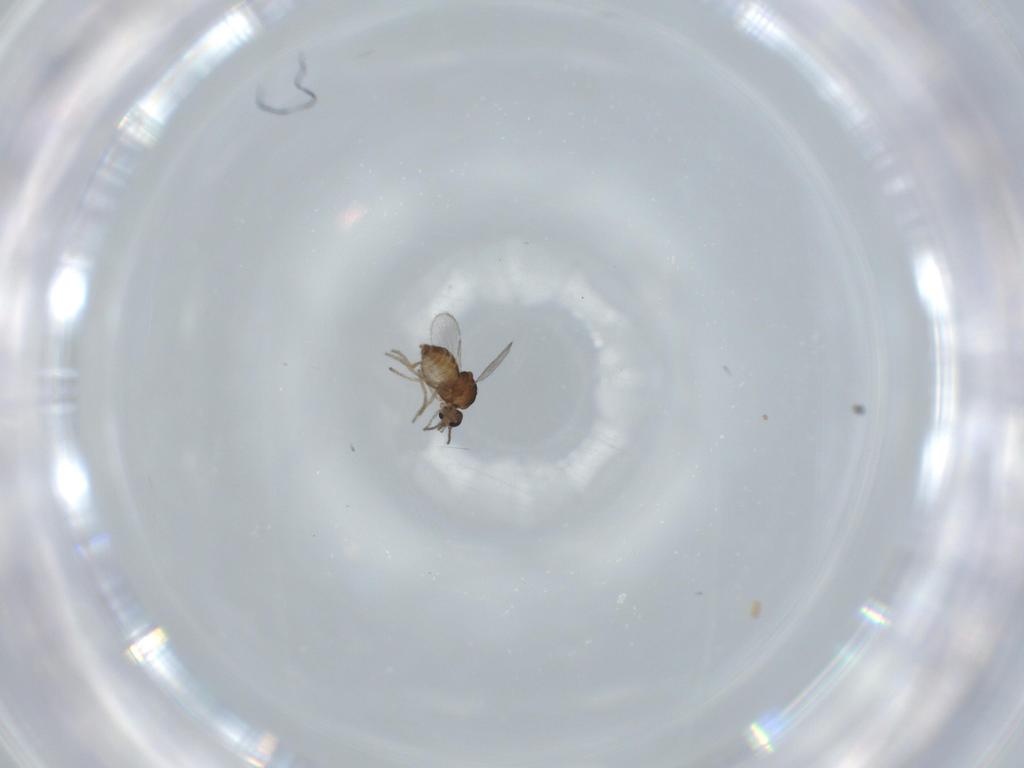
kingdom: Animalia
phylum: Arthropoda
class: Insecta
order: Diptera
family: Ceratopogonidae
